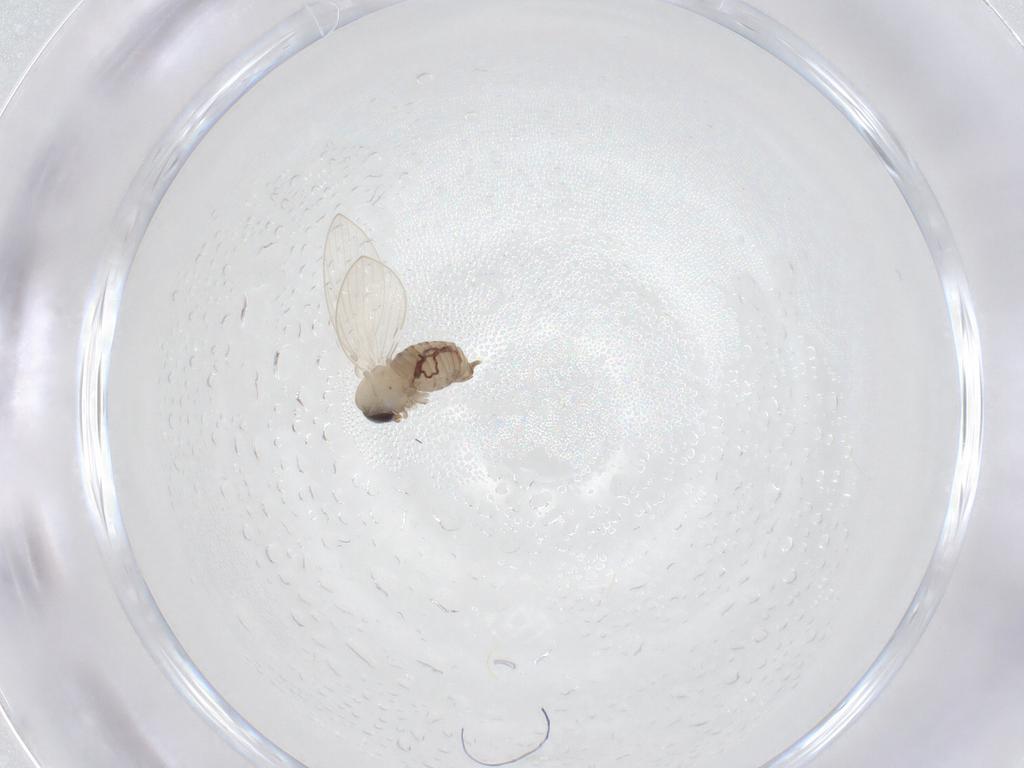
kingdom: Animalia
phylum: Arthropoda
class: Insecta
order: Diptera
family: Psychodidae
